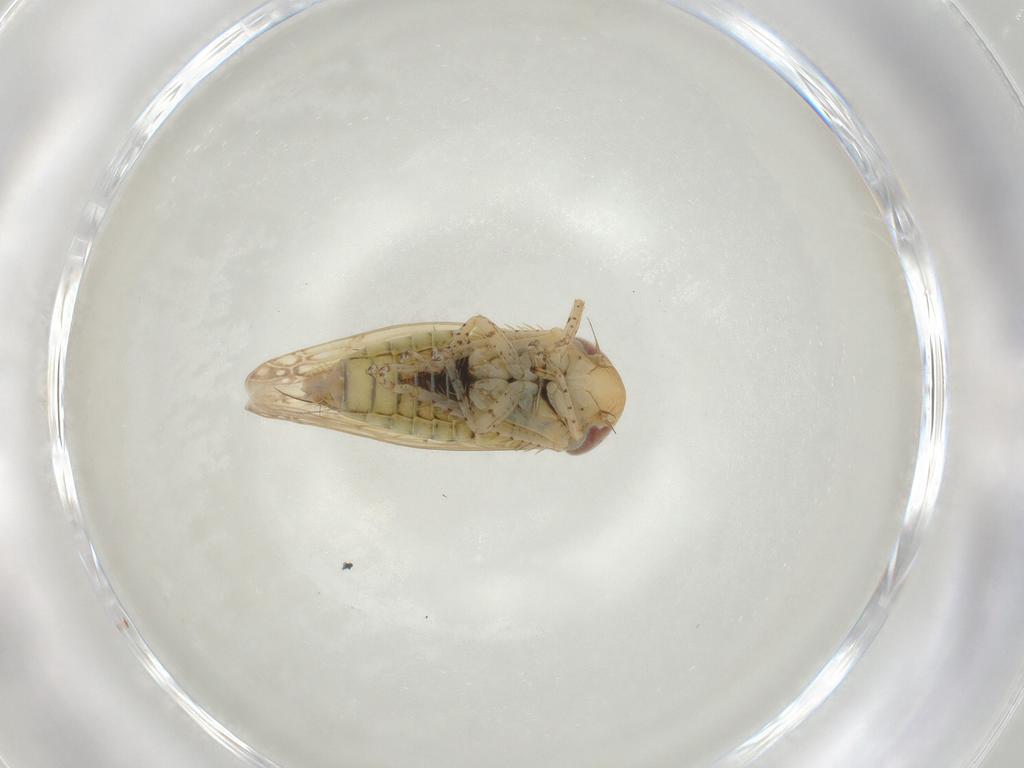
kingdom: Animalia
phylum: Arthropoda
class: Insecta
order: Hemiptera
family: Cicadellidae
